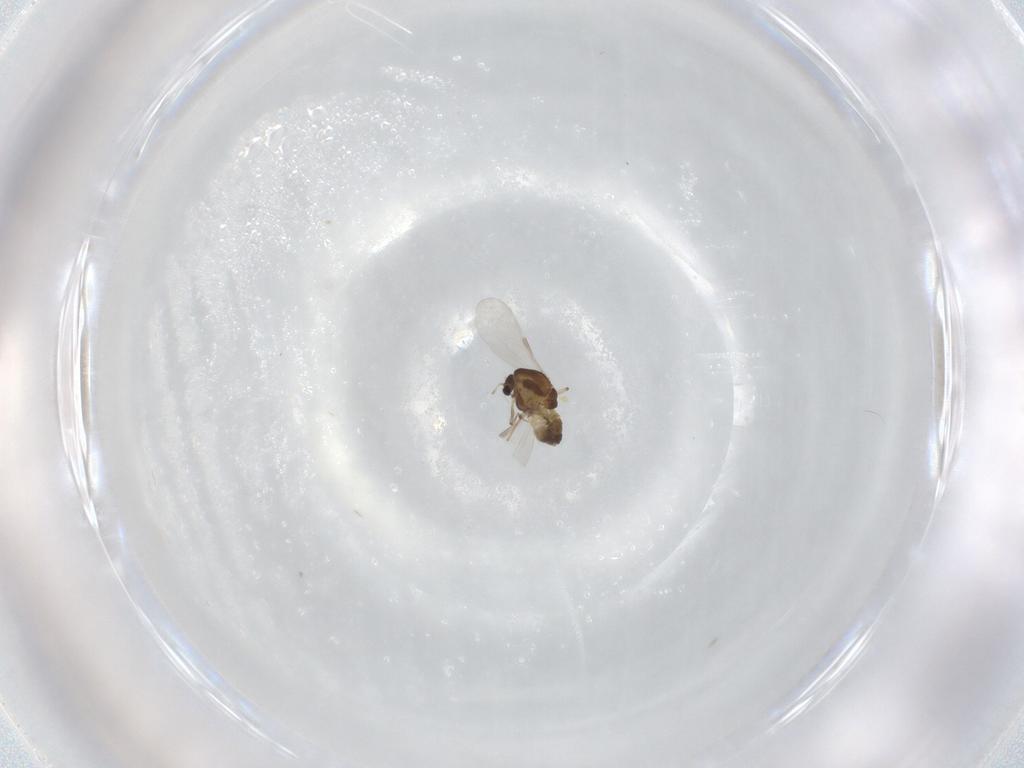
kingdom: Animalia
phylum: Arthropoda
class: Insecta
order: Diptera
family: Chironomidae
